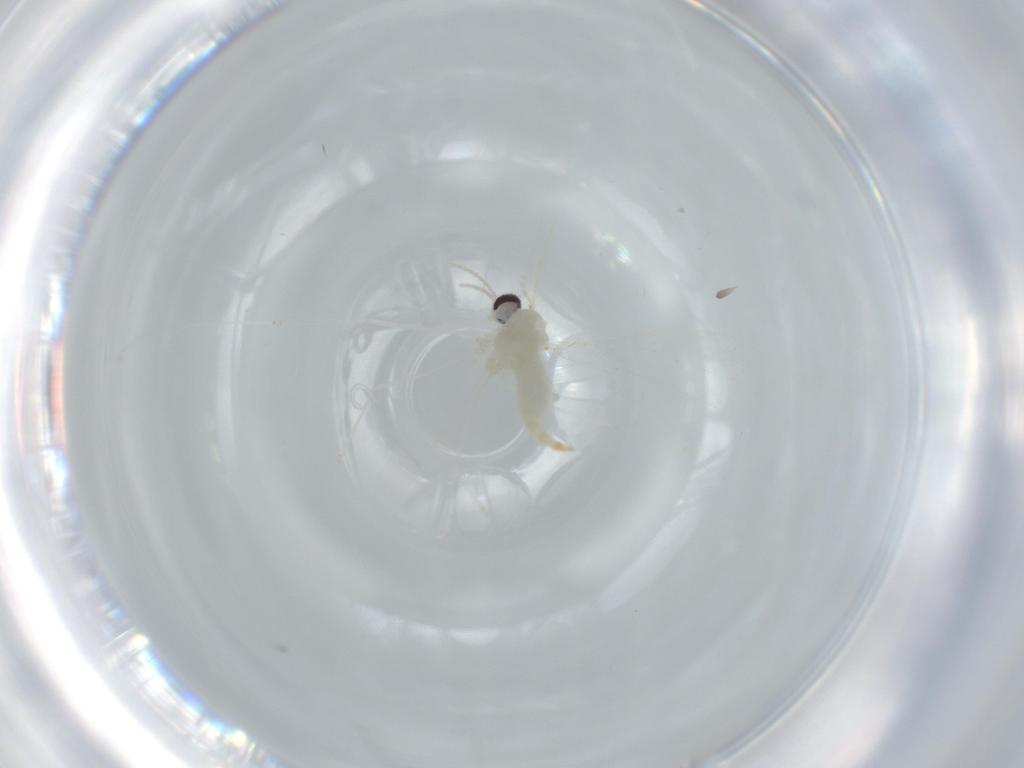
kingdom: Animalia
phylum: Arthropoda
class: Insecta
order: Diptera
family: Cecidomyiidae
